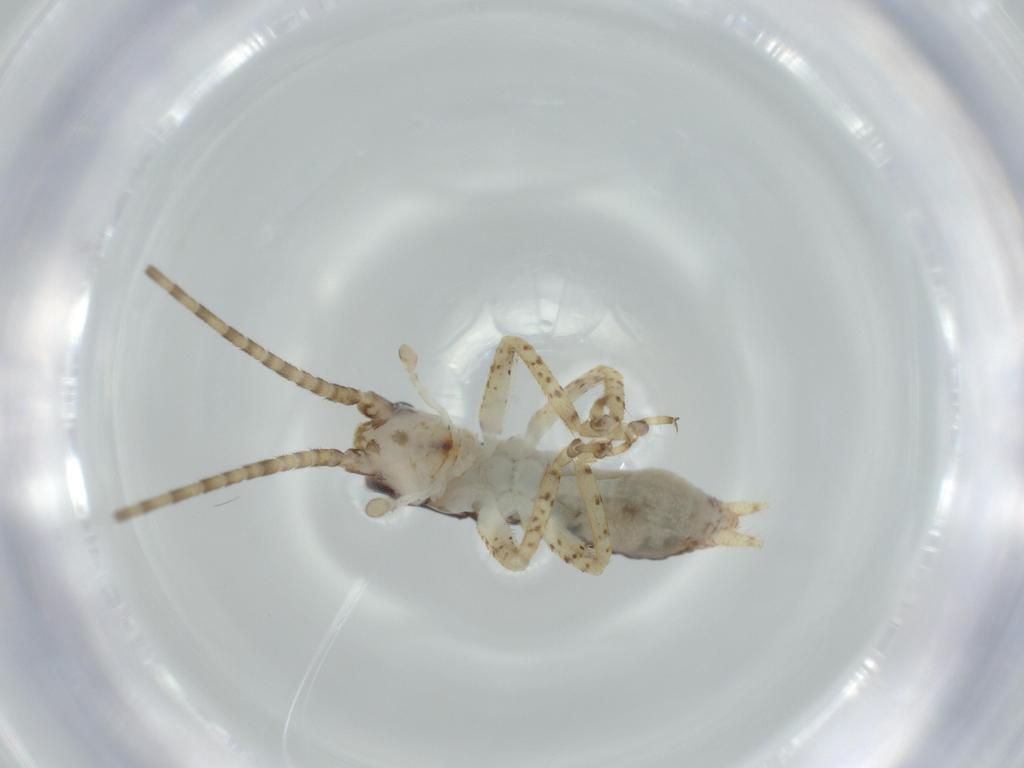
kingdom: Animalia
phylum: Arthropoda
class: Insecta
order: Orthoptera
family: Gryllidae
